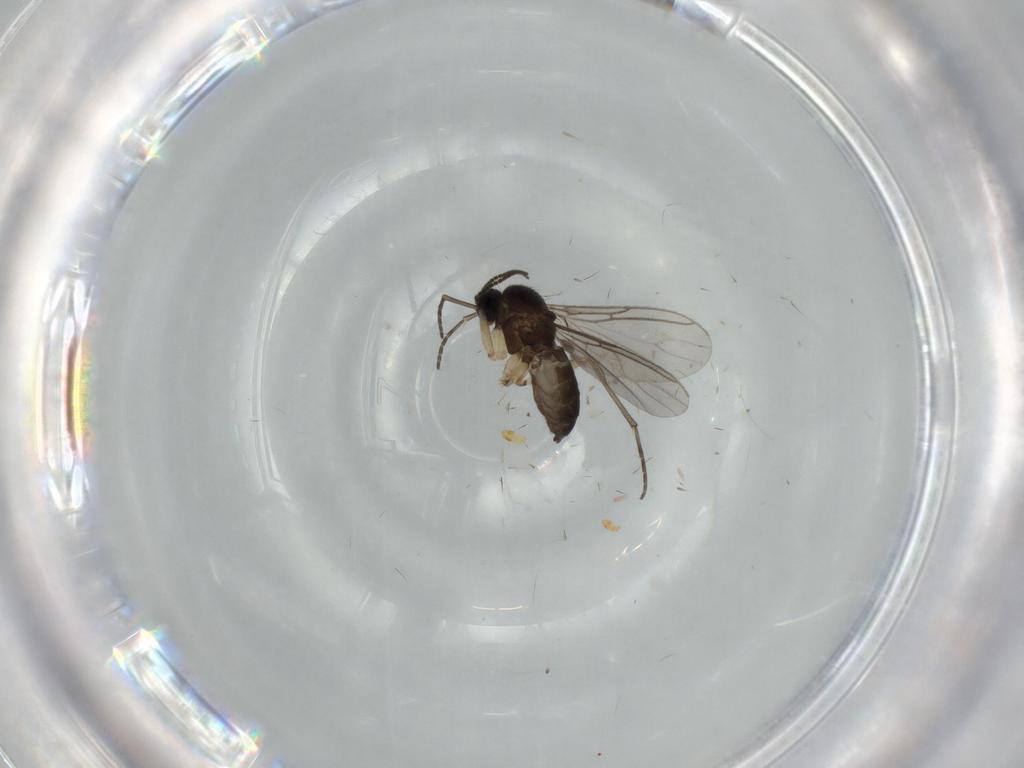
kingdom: Animalia
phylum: Arthropoda
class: Insecta
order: Diptera
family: Sciaridae
